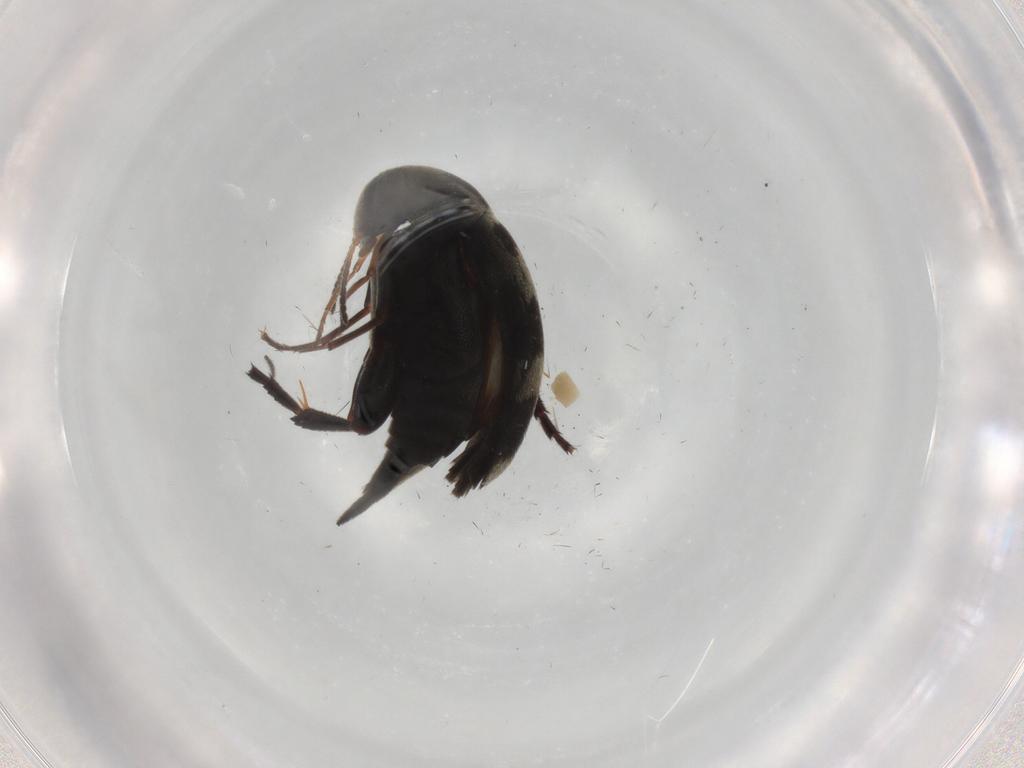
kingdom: Animalia
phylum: Arthropoda
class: Insecta
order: Coleoptera
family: Mordellidae
